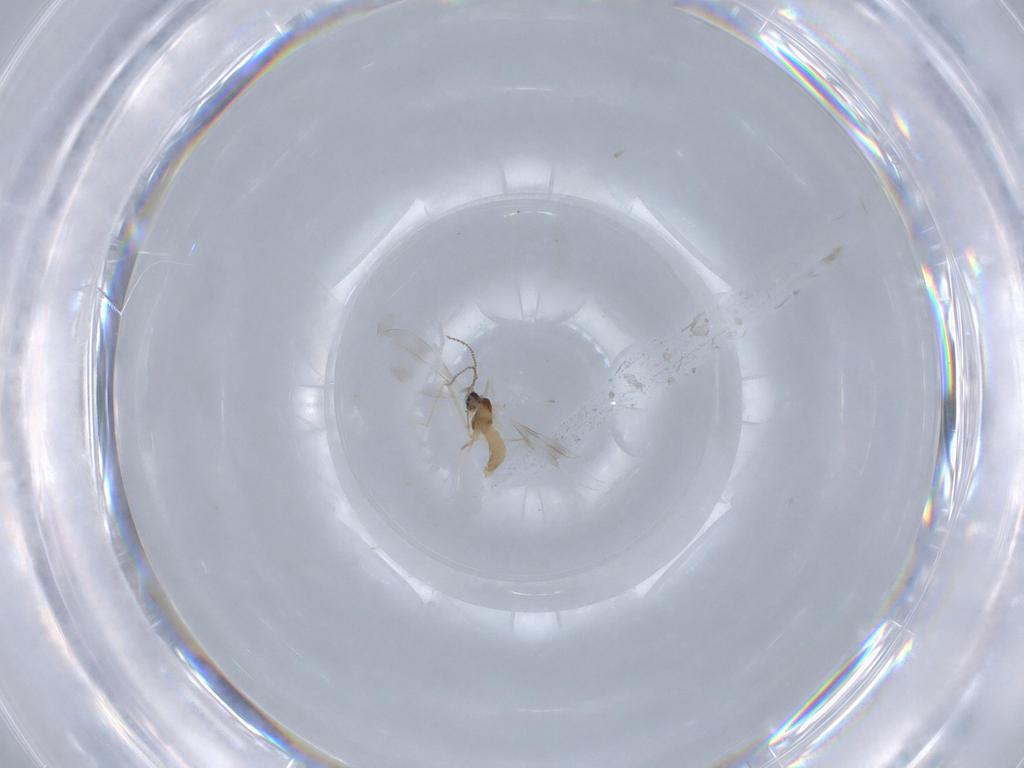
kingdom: Animalia
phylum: Arthropoda
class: Insecta
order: Diptera
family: Cecidomyiidae
